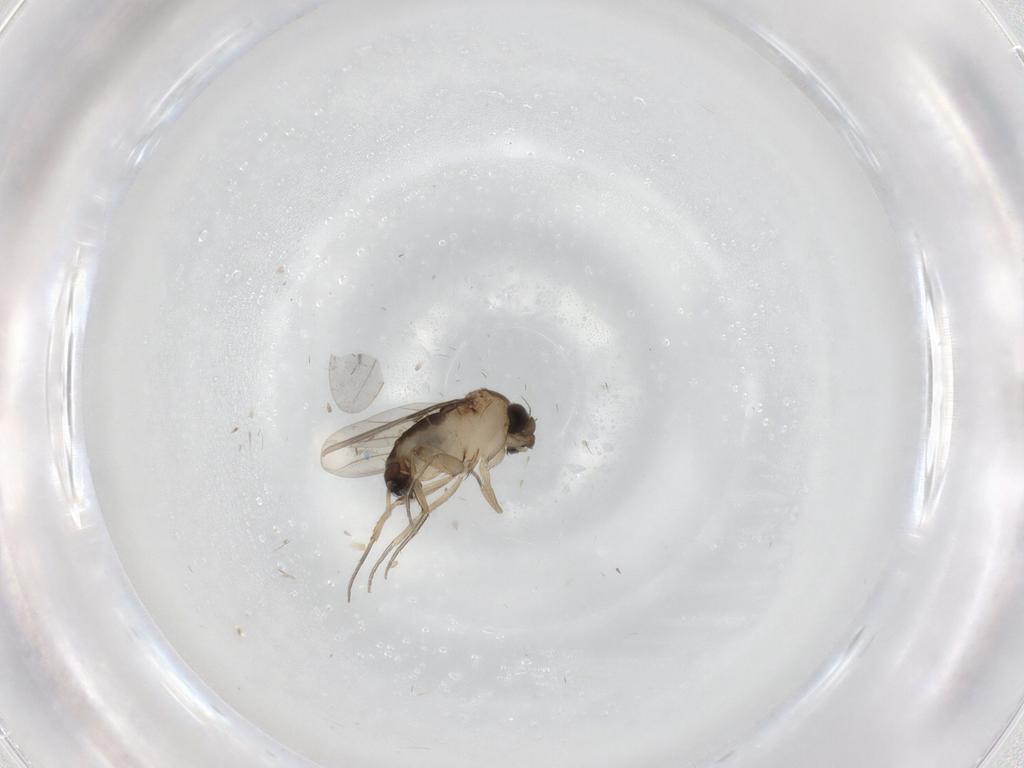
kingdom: Animalia
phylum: Arthropoda
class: Insecta
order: Diptera
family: Phoridae
